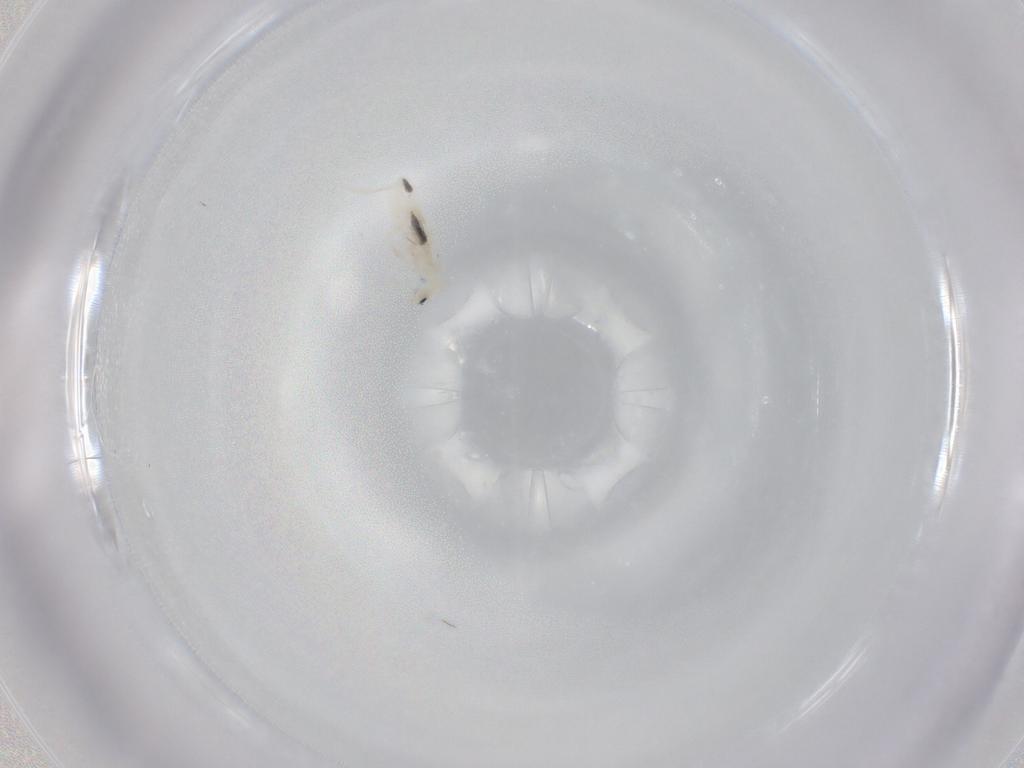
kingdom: Animalia
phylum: Arthropoda
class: Collembola
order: Entomobryomorpha
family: Entomobryidae
